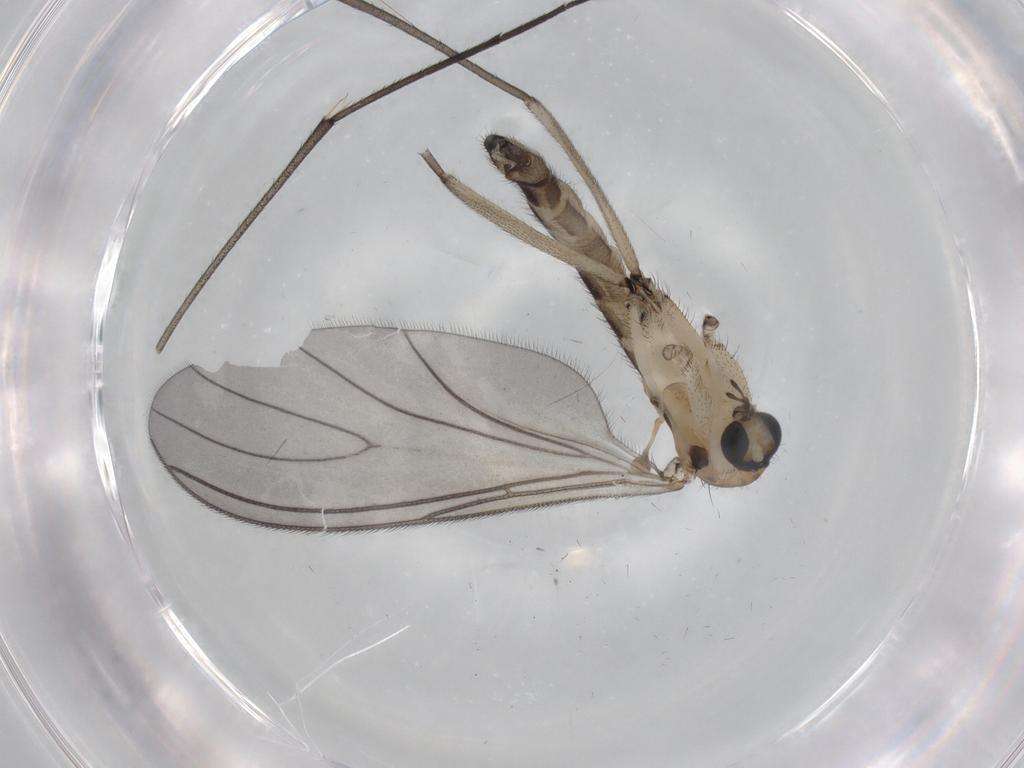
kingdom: Animalia
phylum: Arthropoda
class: Insecta
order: Diptera
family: Sciaridae
